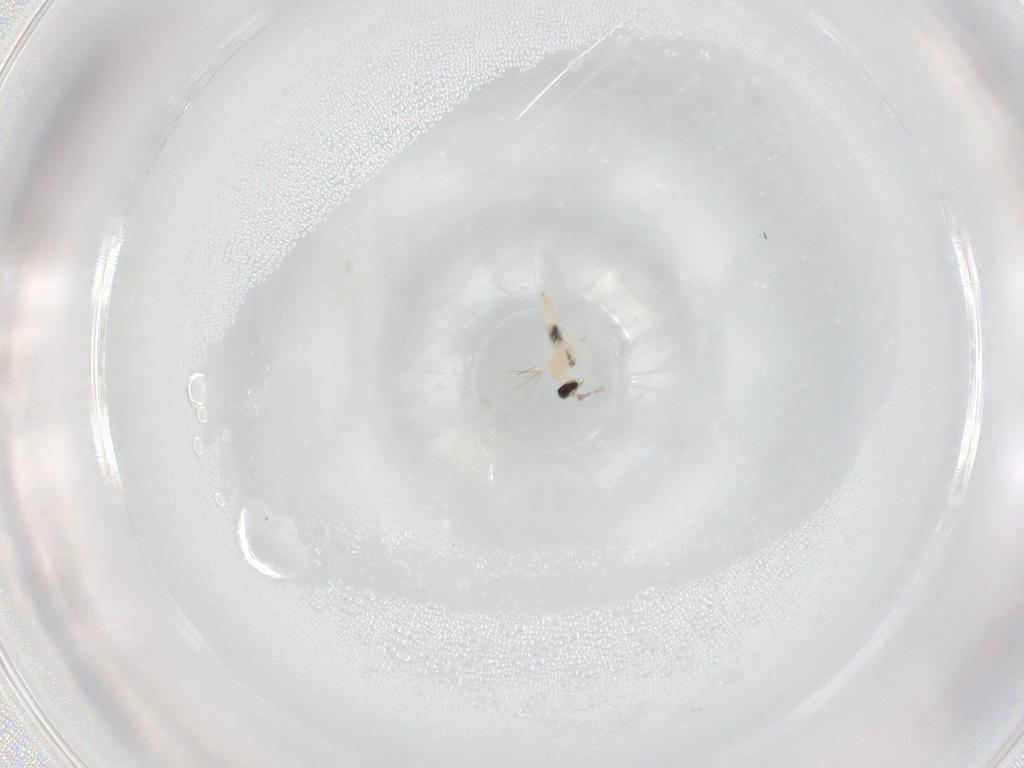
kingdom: Animalia
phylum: Arthropoda
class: Insecta
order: Diptera
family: Cecidomyiidae
